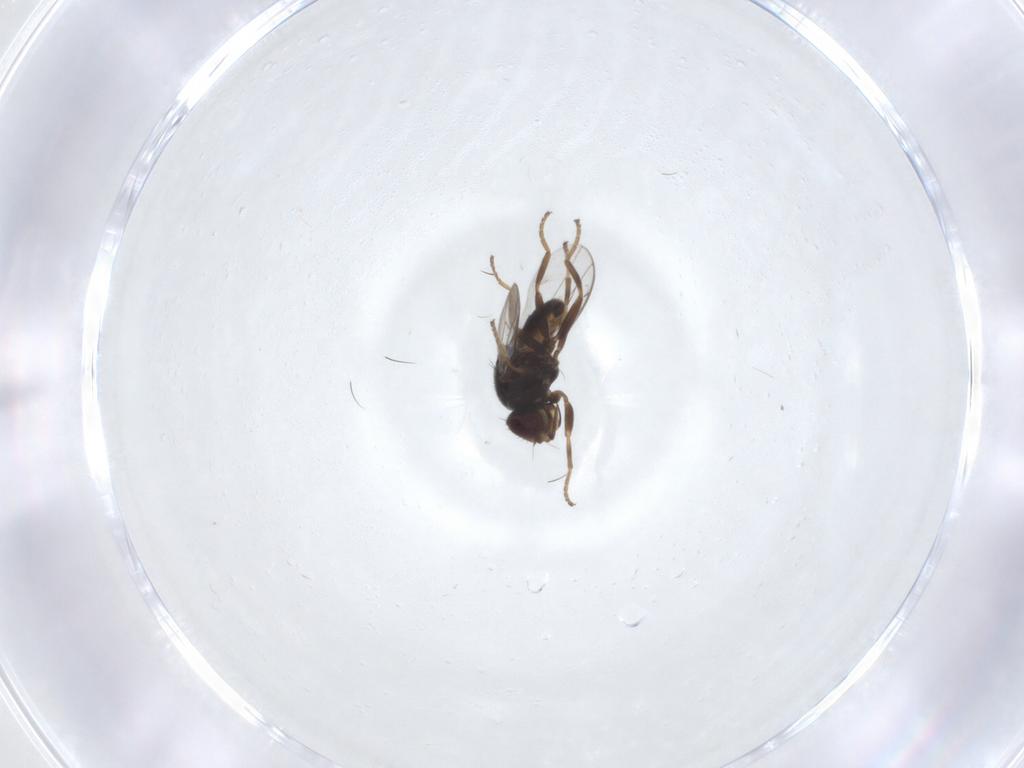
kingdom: Animalia
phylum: Arthropoda
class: Insecta
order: Diptera
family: Chloropidae
